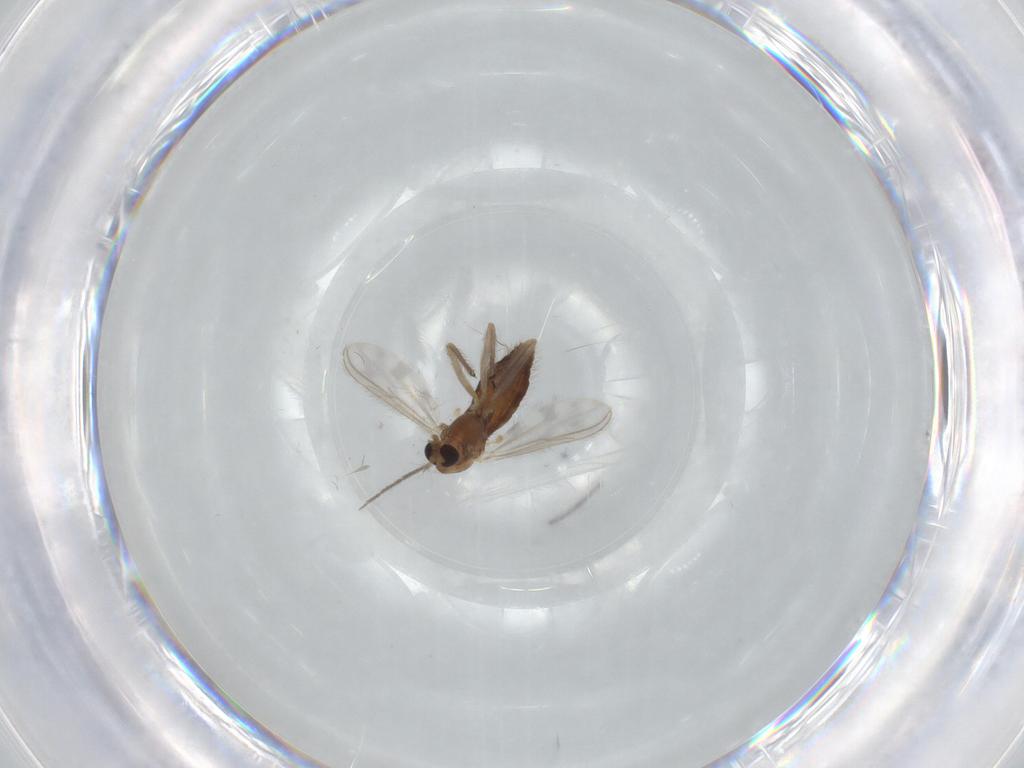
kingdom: Animalia
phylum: Arthropoda
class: Insecta
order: Diptera
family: Chironomidae
